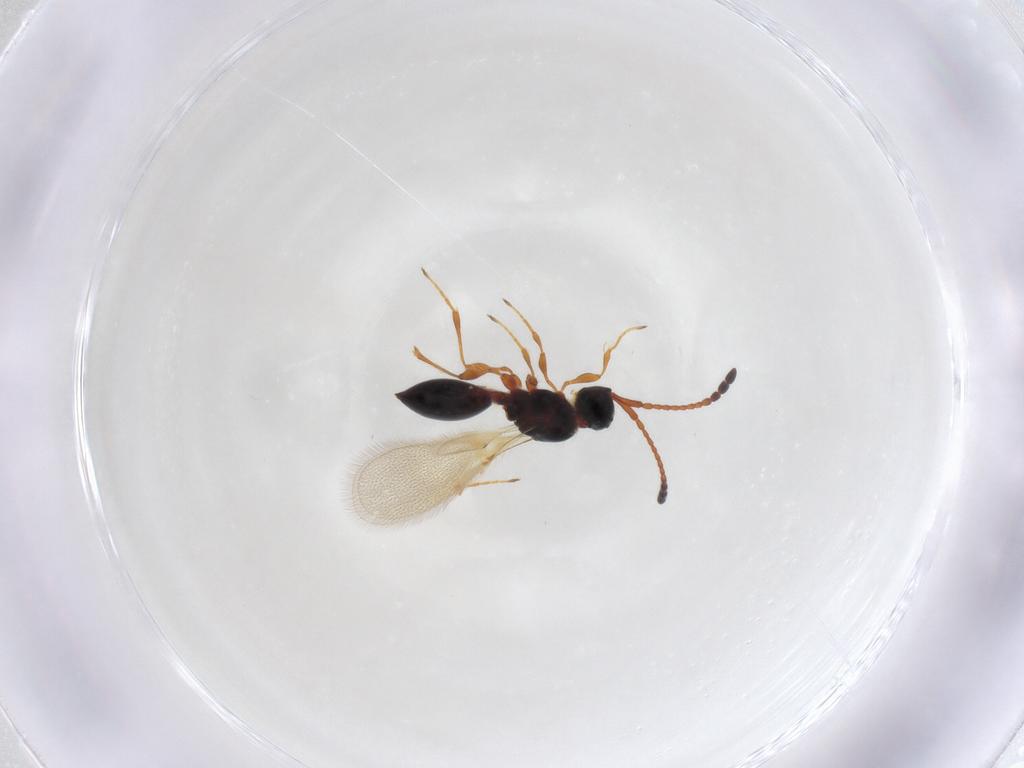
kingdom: Animalia
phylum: Arthropoda
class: Insecta
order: Hymenoptera
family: Diapriidae
